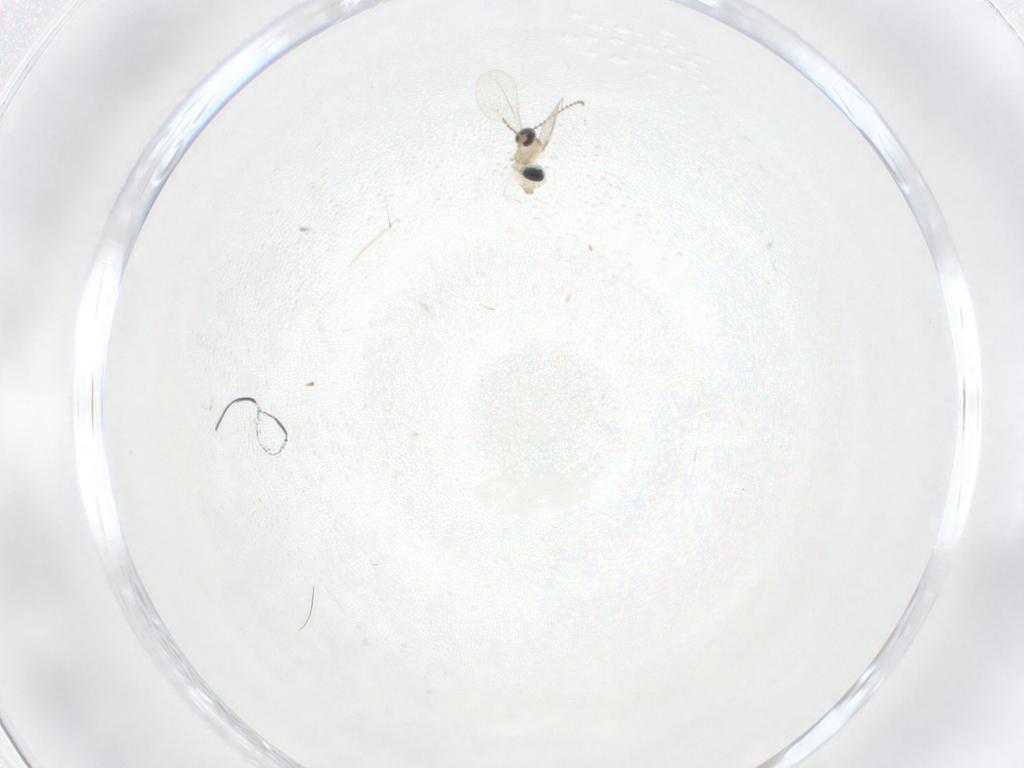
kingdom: Animalia
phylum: Arthropoda
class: Insecta
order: Diptera
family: Cecidomyiidae
